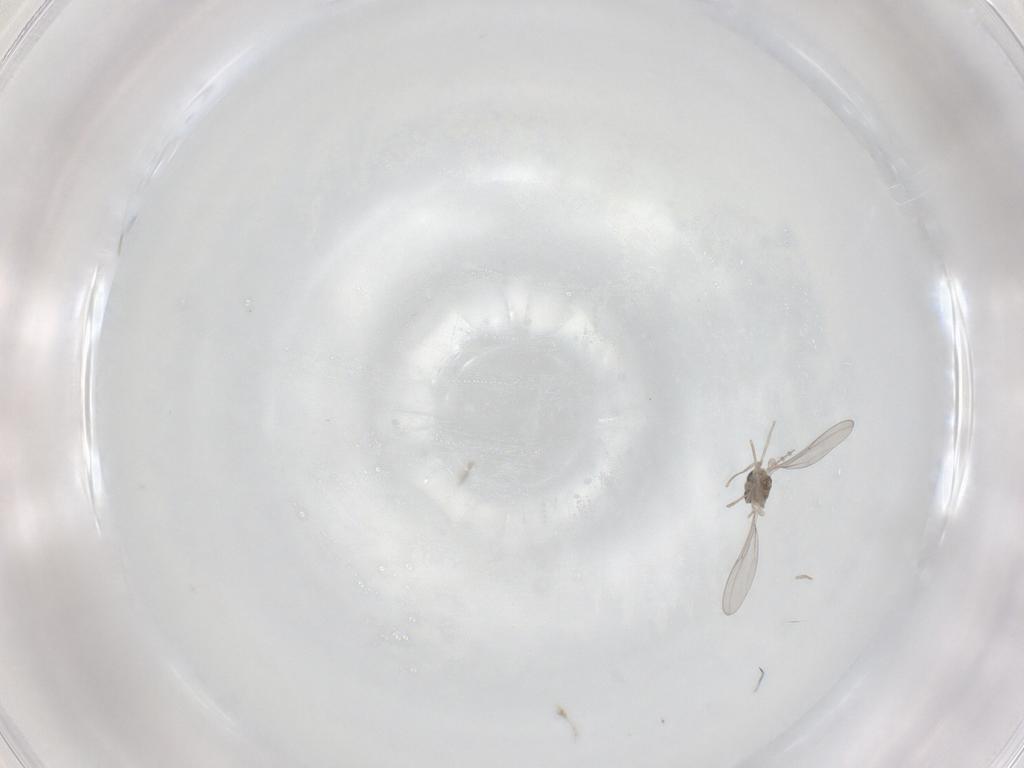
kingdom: Animalia
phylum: Arthropoda
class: Insecta
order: Diptera
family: Cecidomyiidae
